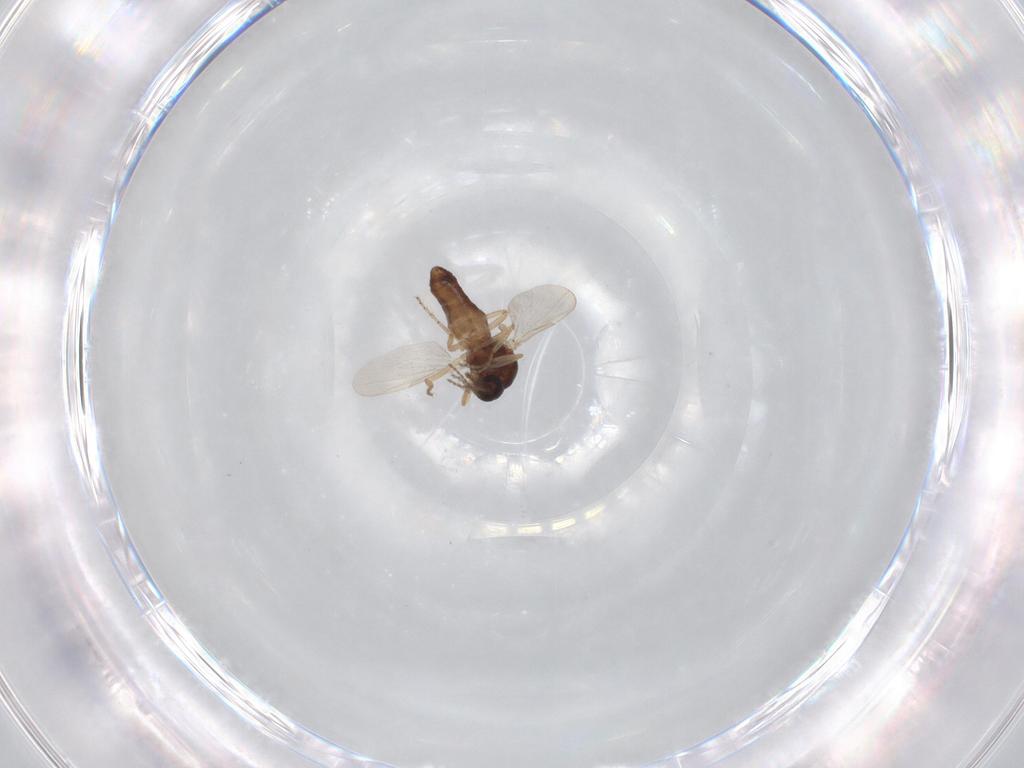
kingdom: Animalia
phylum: Arthropoda
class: Insecta
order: Diptera
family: Ceratopogonidae
